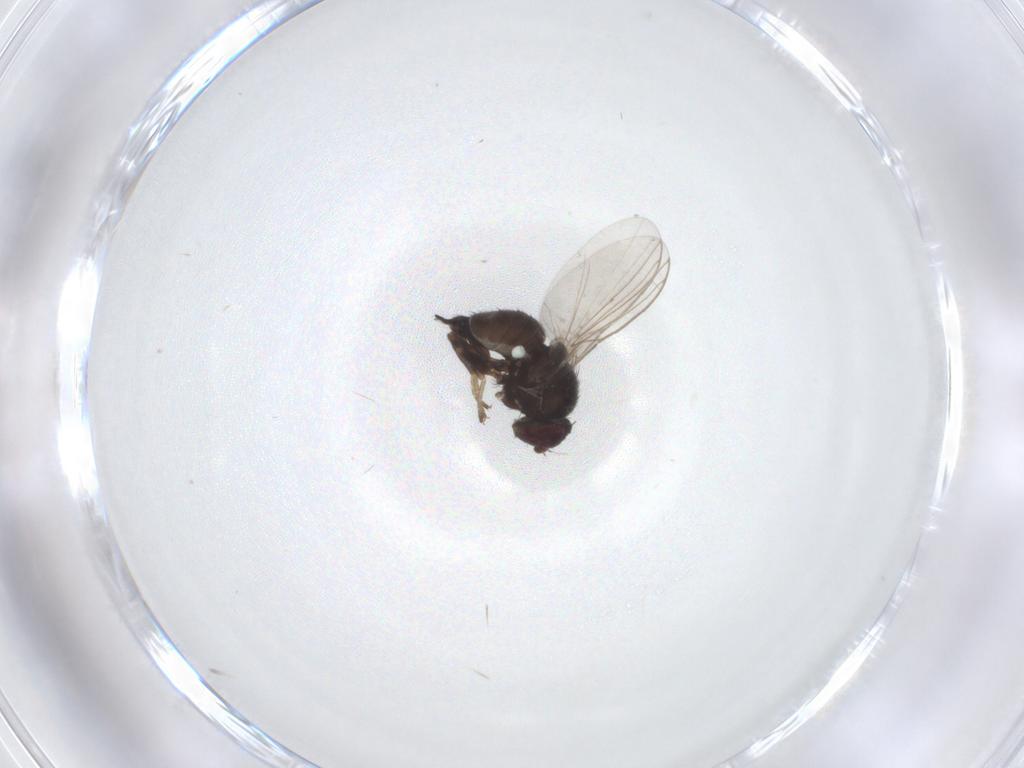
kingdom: Animalia
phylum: Arthropoda
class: Insecta
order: Diptera
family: Agromyzidae
